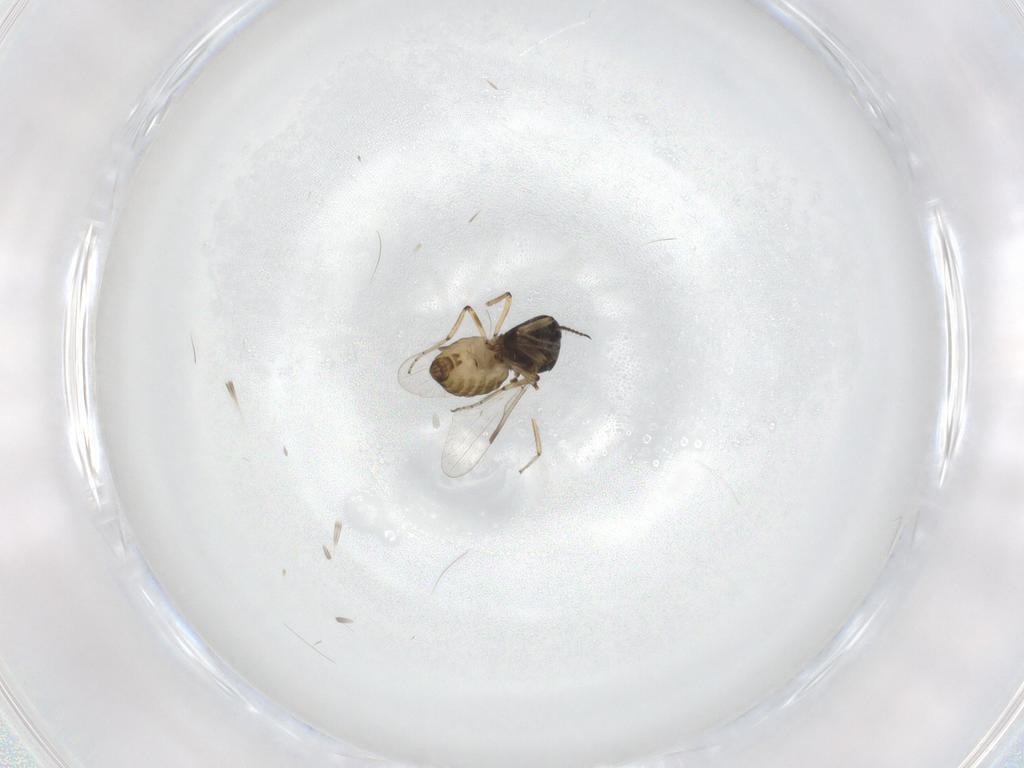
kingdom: Animalia
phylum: Arthropoda
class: Insecta
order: Diptera
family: Ceratopogonidae
